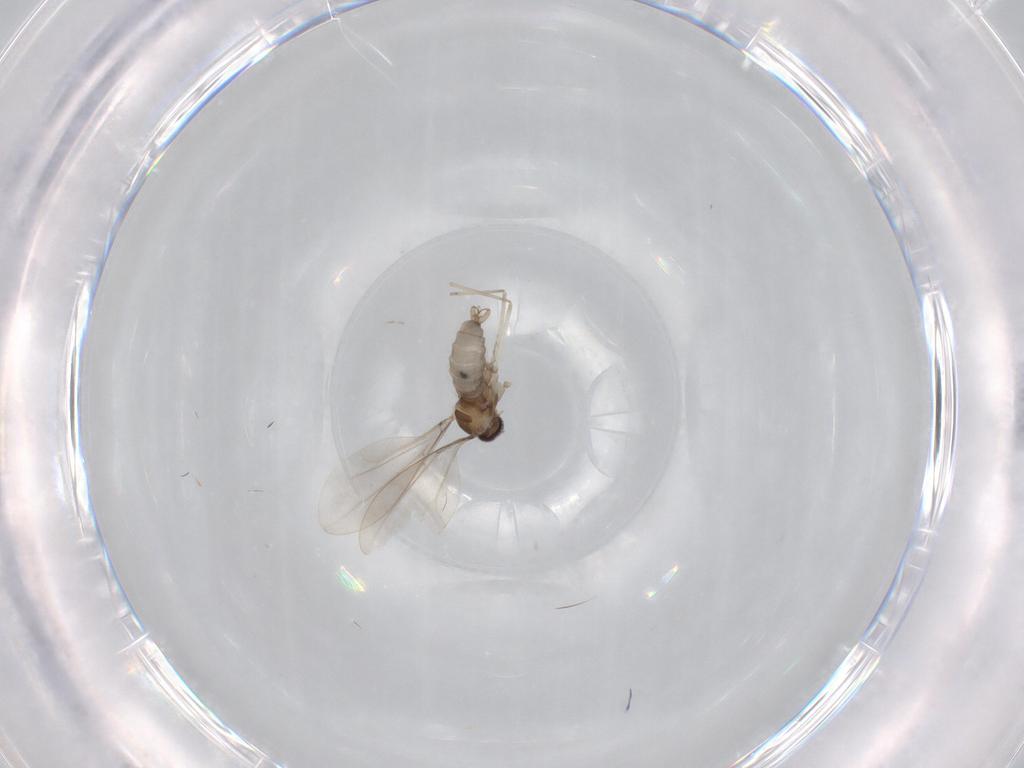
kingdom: Animalia
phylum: Arthropoda
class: Insecta
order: Diptera
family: Cecidomyiidae
